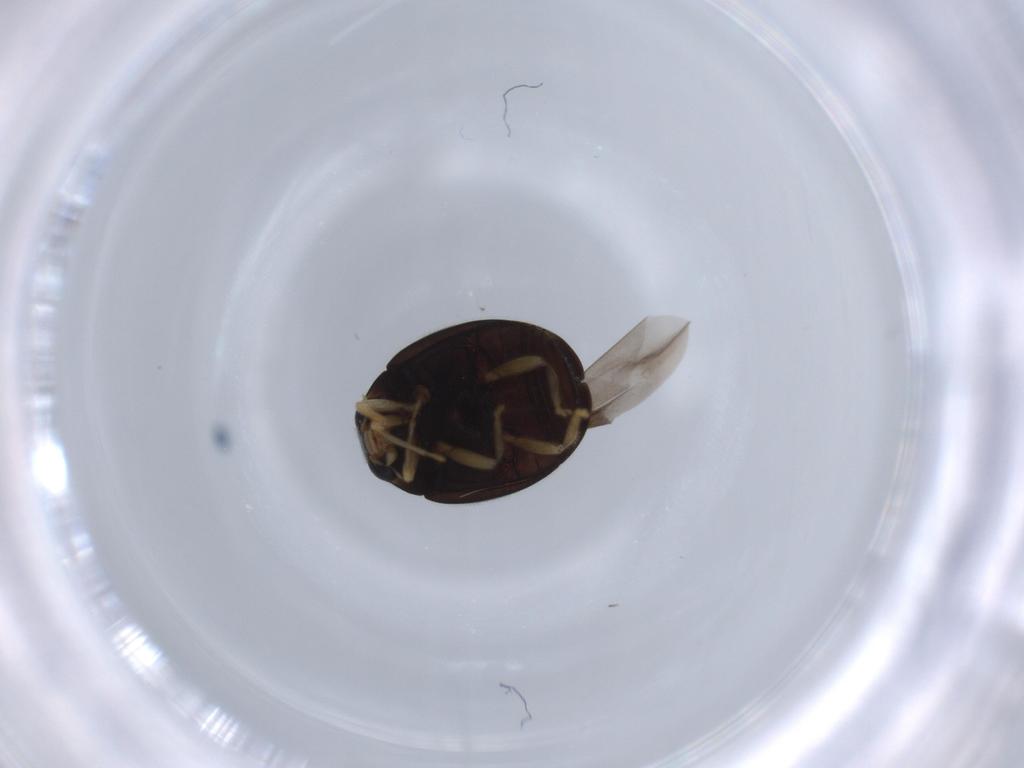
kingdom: Animalia
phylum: Arthropoda
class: Insecta
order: Coleoptera
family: Coccinellidae
